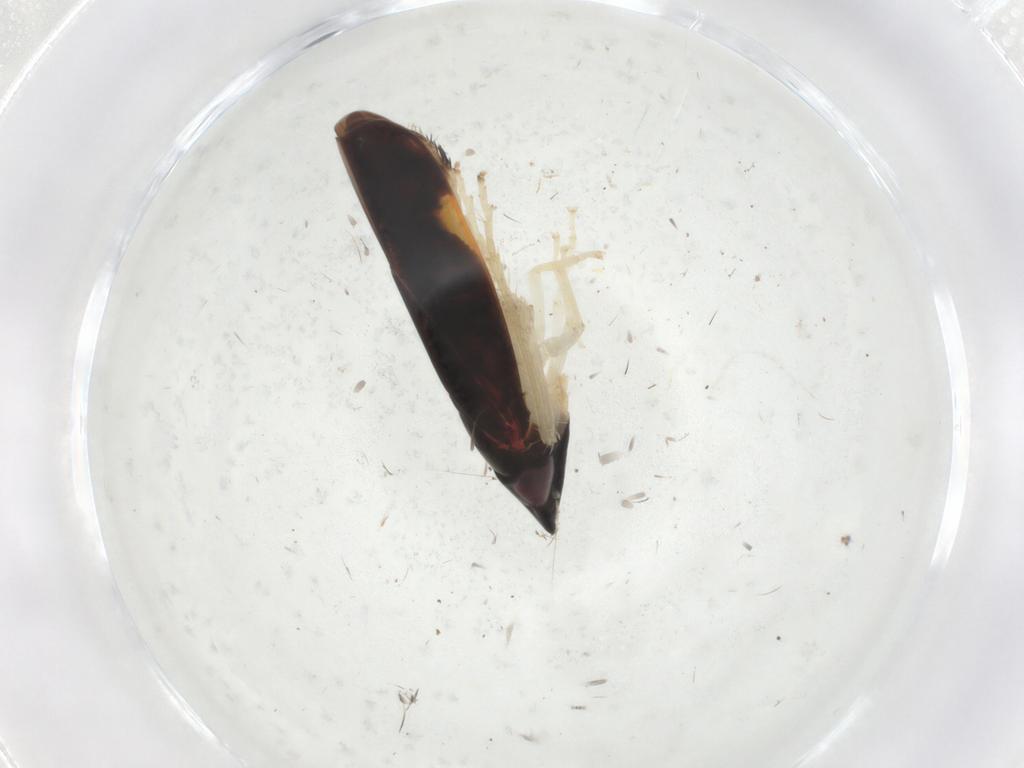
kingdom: Animalia
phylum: Arthropoda
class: Insecta
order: Hemiptera
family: Cicadellidae
